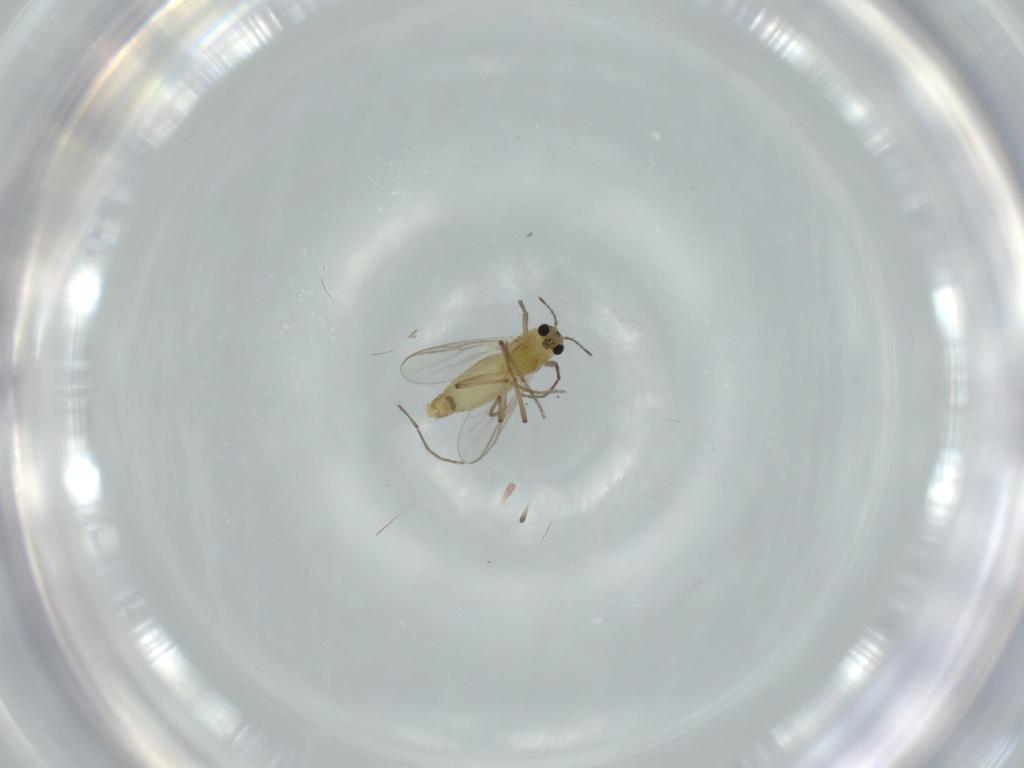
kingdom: Animalia
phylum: Arthropoda
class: Insecta
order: Diptera
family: Chironomidae
